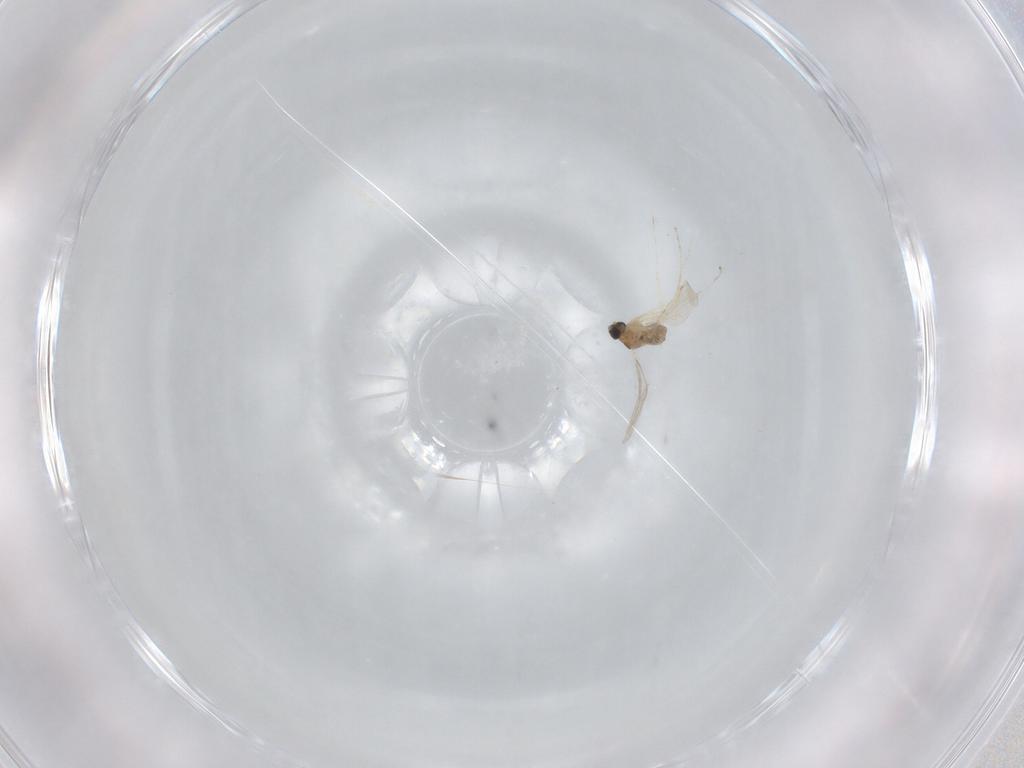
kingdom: Animalia
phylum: Arthropoda
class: Insecta
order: Diptera
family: Cecidomyiidae
